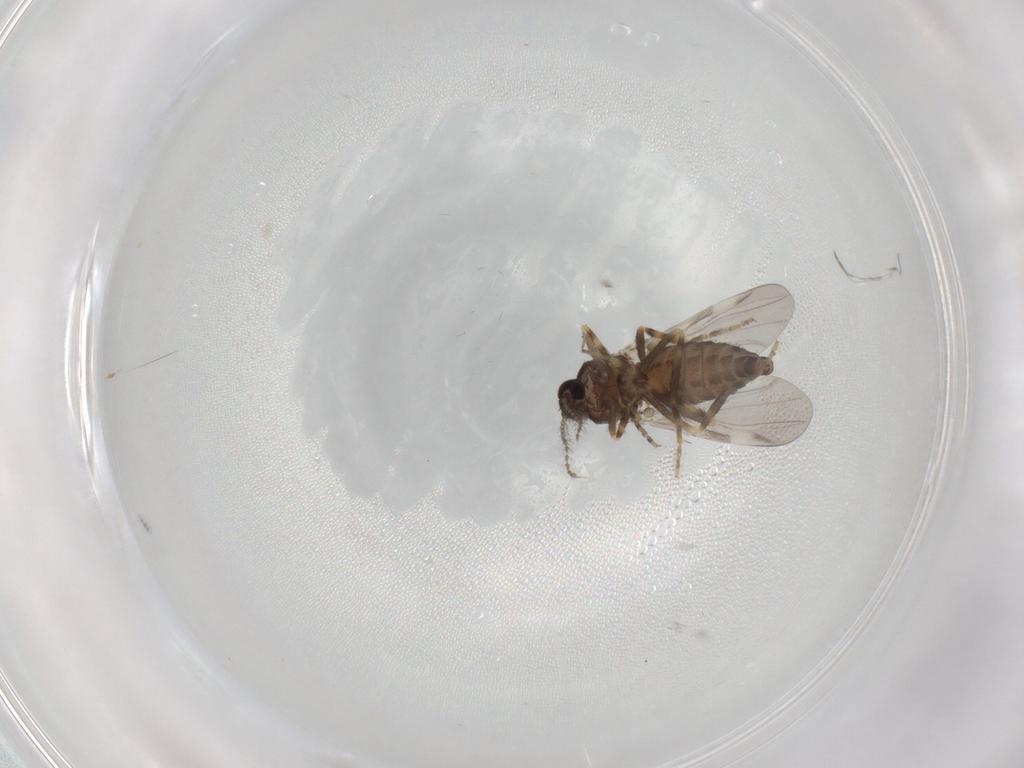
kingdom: Animalia
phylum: Arthropoda
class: Insecta
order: Diptera
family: Ceratopogonidae
